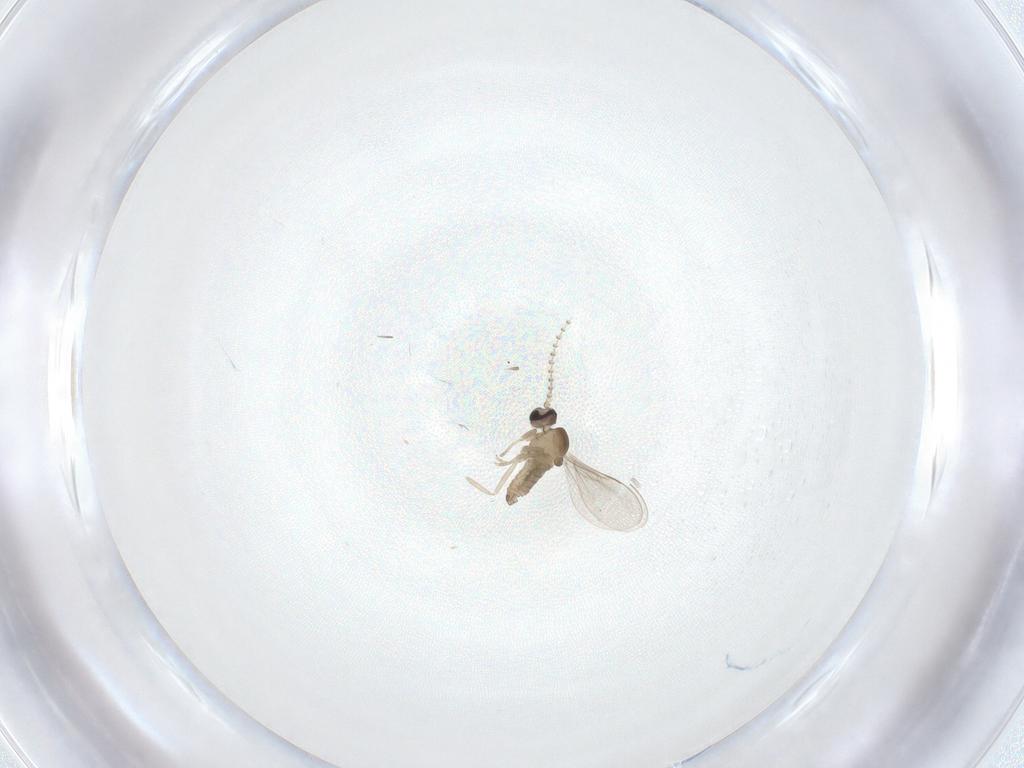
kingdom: Animalia
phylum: Arthropoda
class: Insecta
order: Diptera
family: Cecidomyiidae
